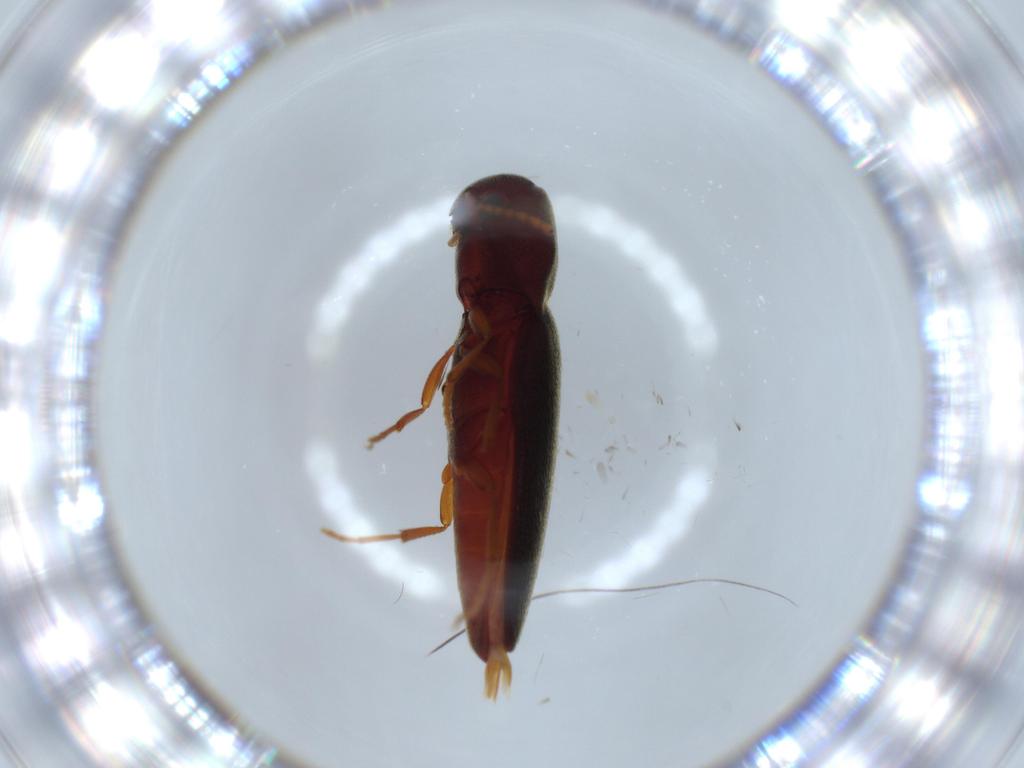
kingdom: Animalia
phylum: Arthropoda
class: Insecta
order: Coleoptera
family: Eucnemidae
